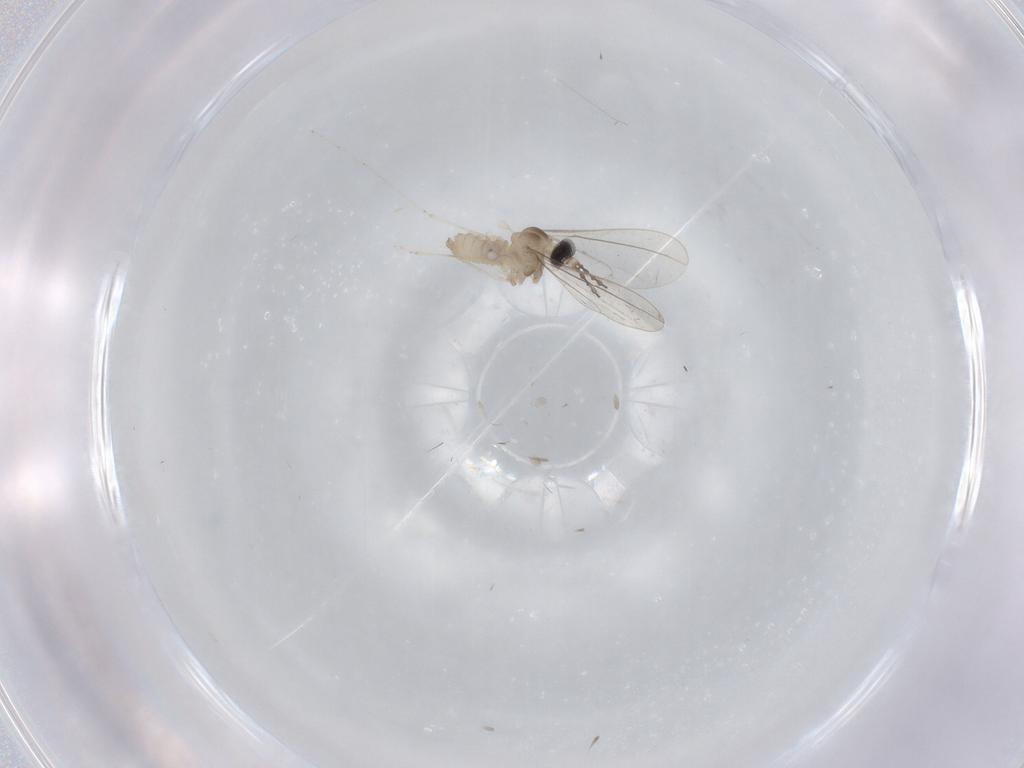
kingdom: Animalia
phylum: Arthropoda
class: Insecta
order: Diptera
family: Cecidomyiidae
